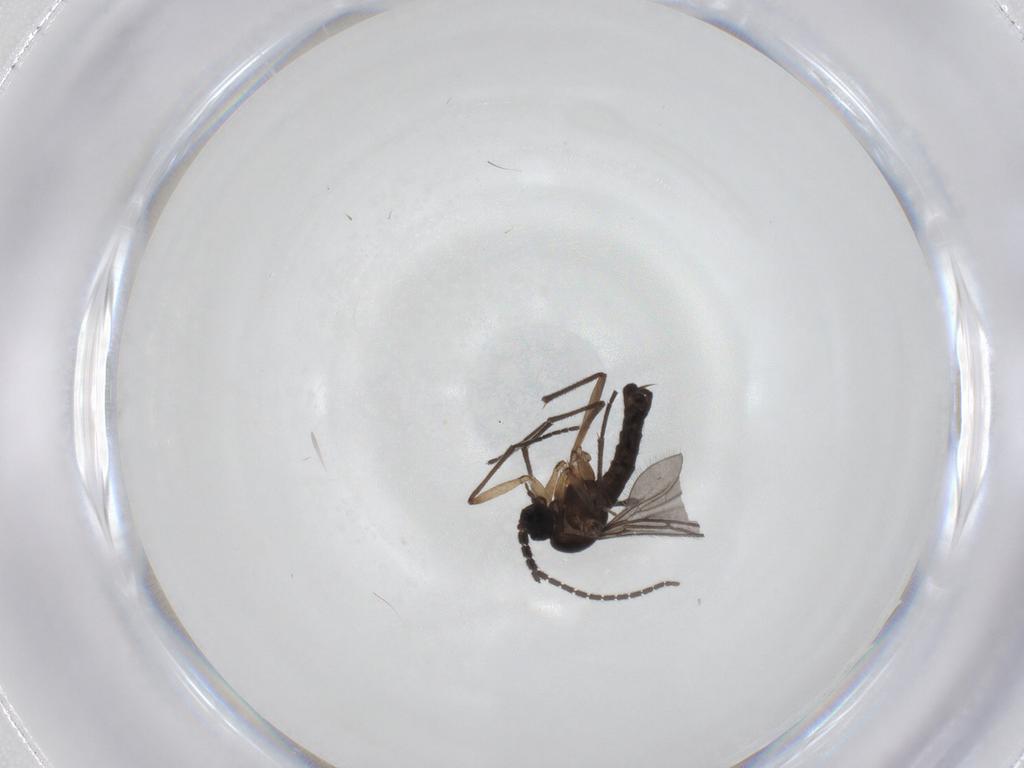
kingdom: Animalia
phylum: Arthropoda
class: Insecta
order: Diptera
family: Sciaridae
